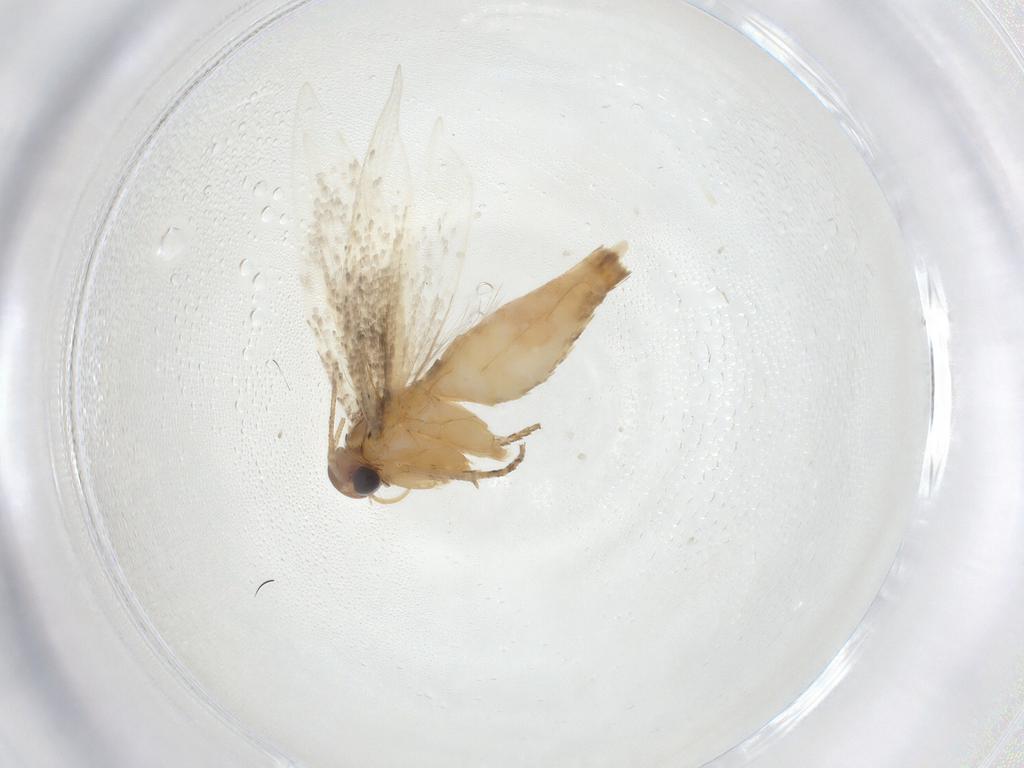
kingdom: Animalia
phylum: Arthropoda
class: Insecta
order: Lepidoptera
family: Gelechiidae
